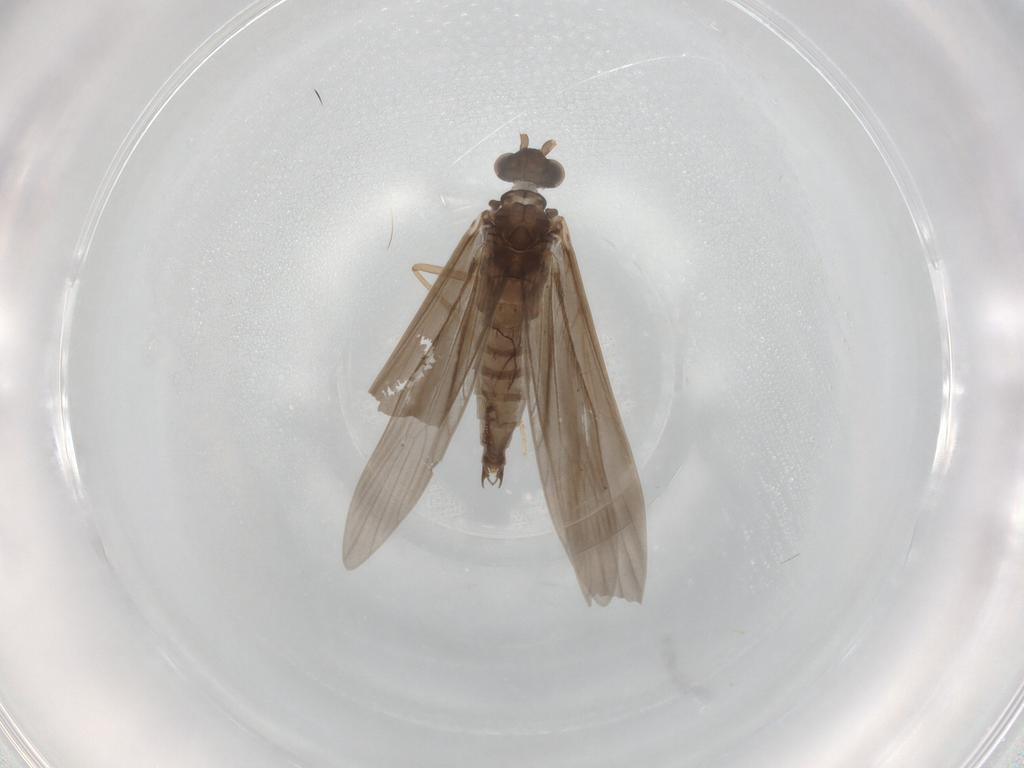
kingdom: Animalia
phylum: Arthropoda
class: Insecta
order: Trichoptera
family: Xiphocentronidae
